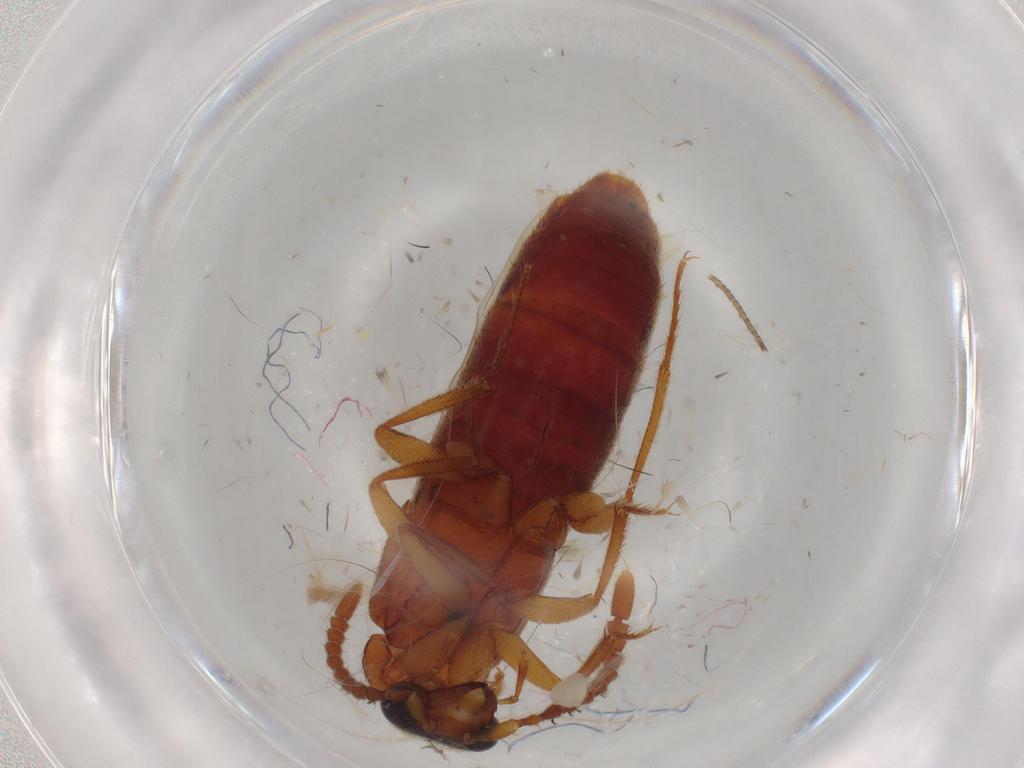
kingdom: Animalia
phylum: Arthropoda
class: Insecta
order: Coleoptera
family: Dytiscidae
